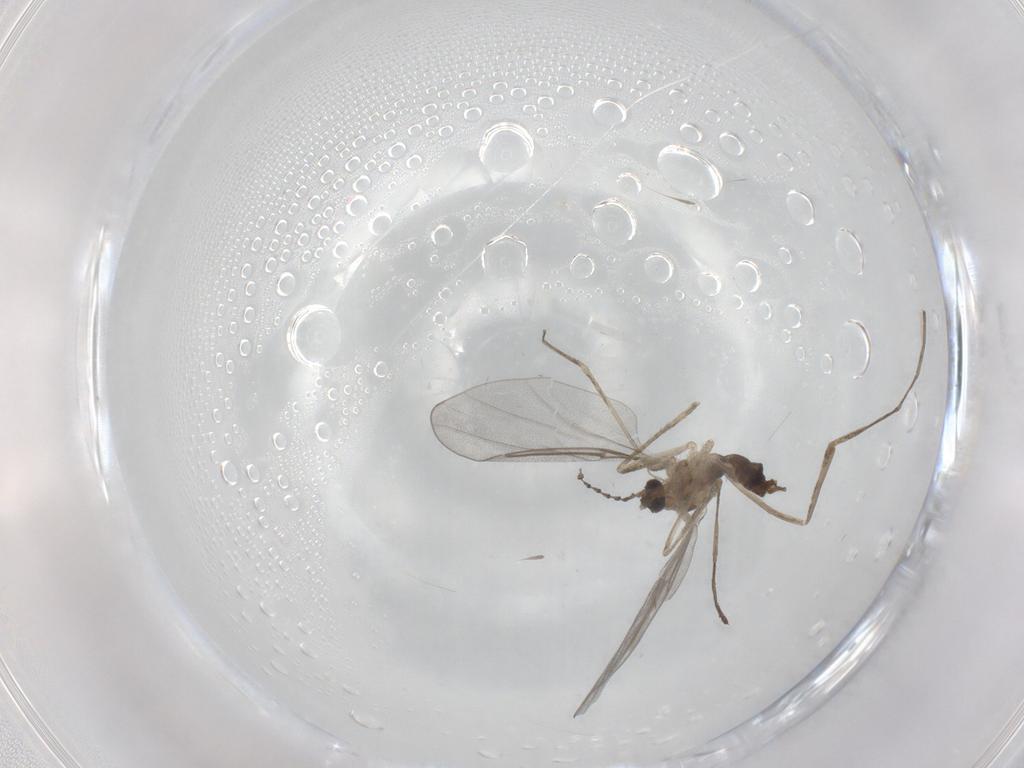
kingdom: Animalia
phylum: Arthropoda
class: Insecta
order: Diptera
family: Cecidomyiidae
